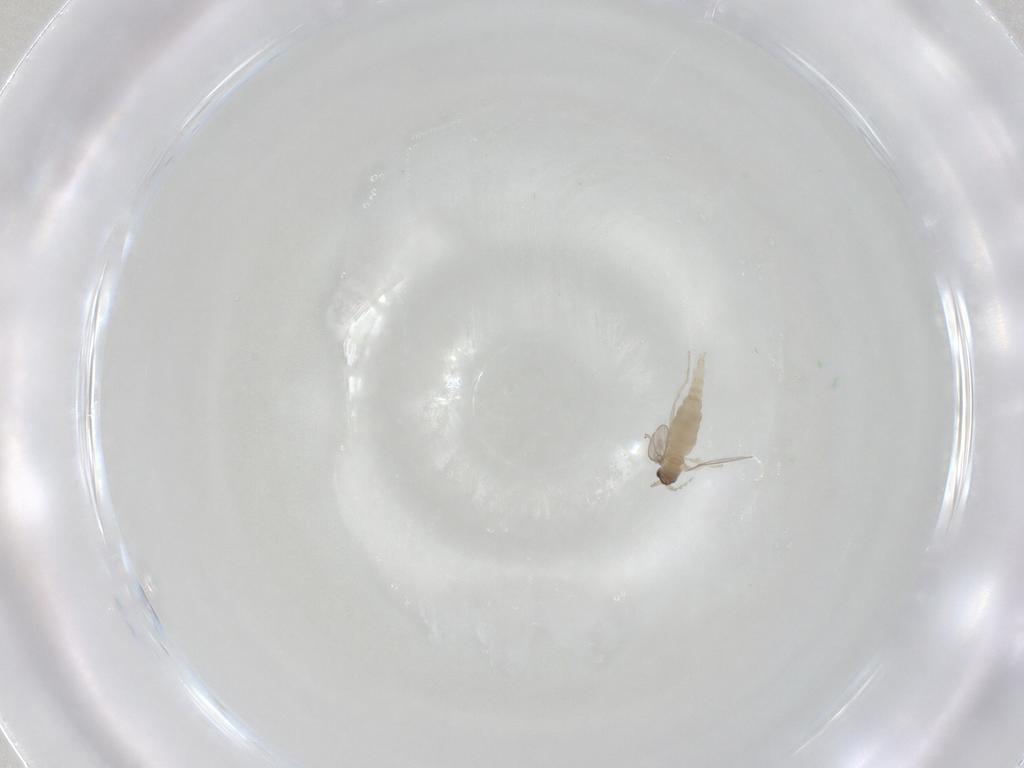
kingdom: Animalia
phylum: Arthropoda
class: Insecta
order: Diptera
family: Cecidomyiidae
